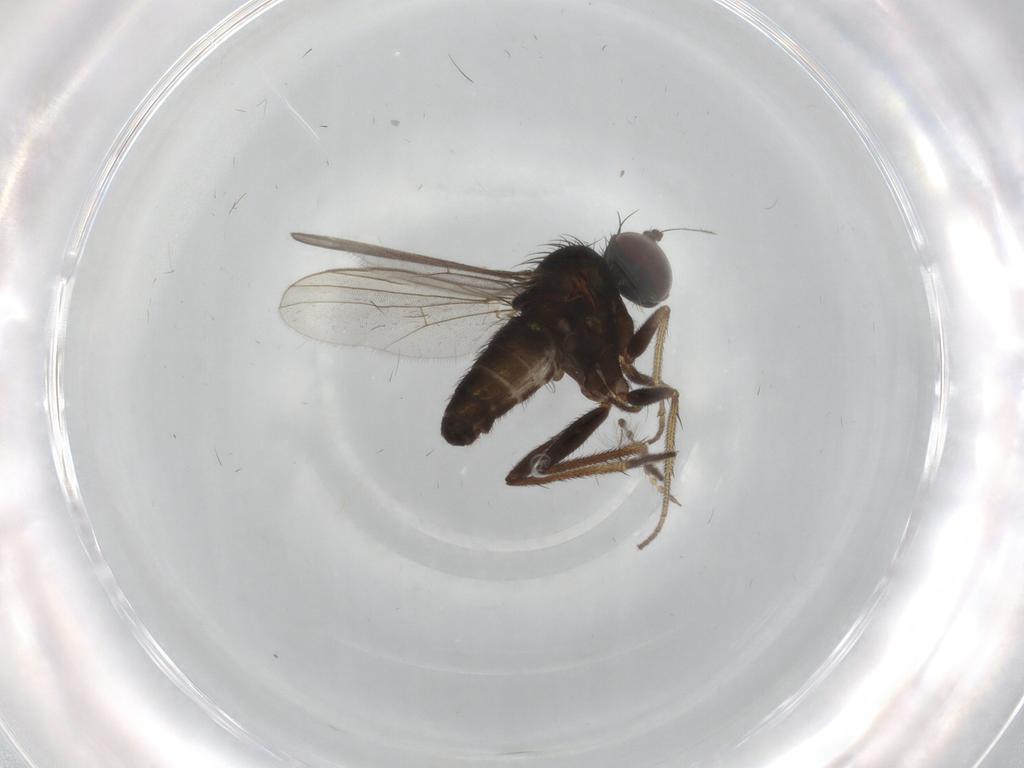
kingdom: Animalia
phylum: Arthropoda
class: Insecta
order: Diptera
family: Dolichopodidae
